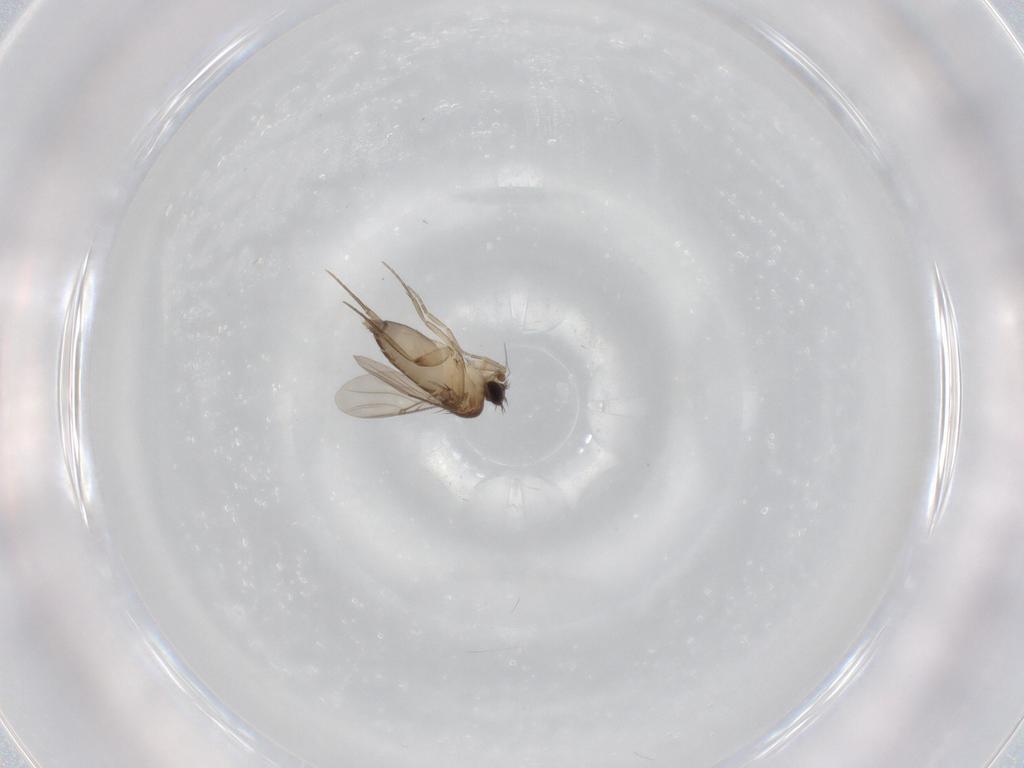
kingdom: Animalia
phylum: Arthropoda
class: Insecta
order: Diptera
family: Phoridae
